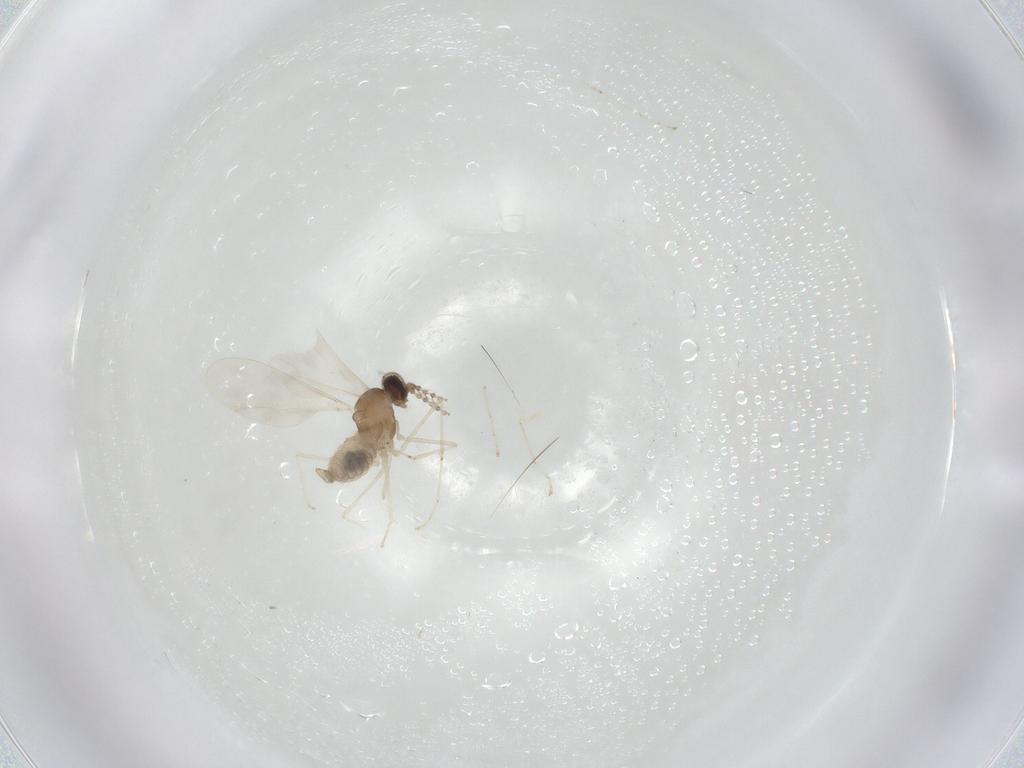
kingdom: Animalia
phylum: Arthropoda
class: Insecta
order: Diptera
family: Cecidomyiidae
